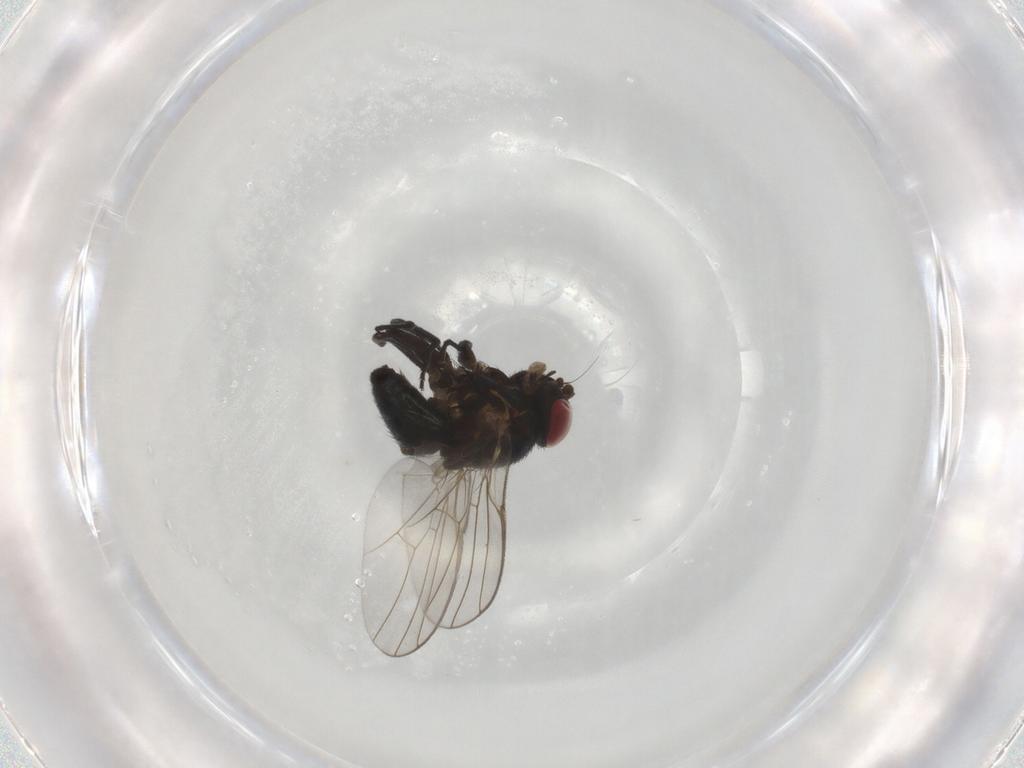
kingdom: Animalia
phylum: Arthropoda
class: Insecta
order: Diptera
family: Agromyzidae
